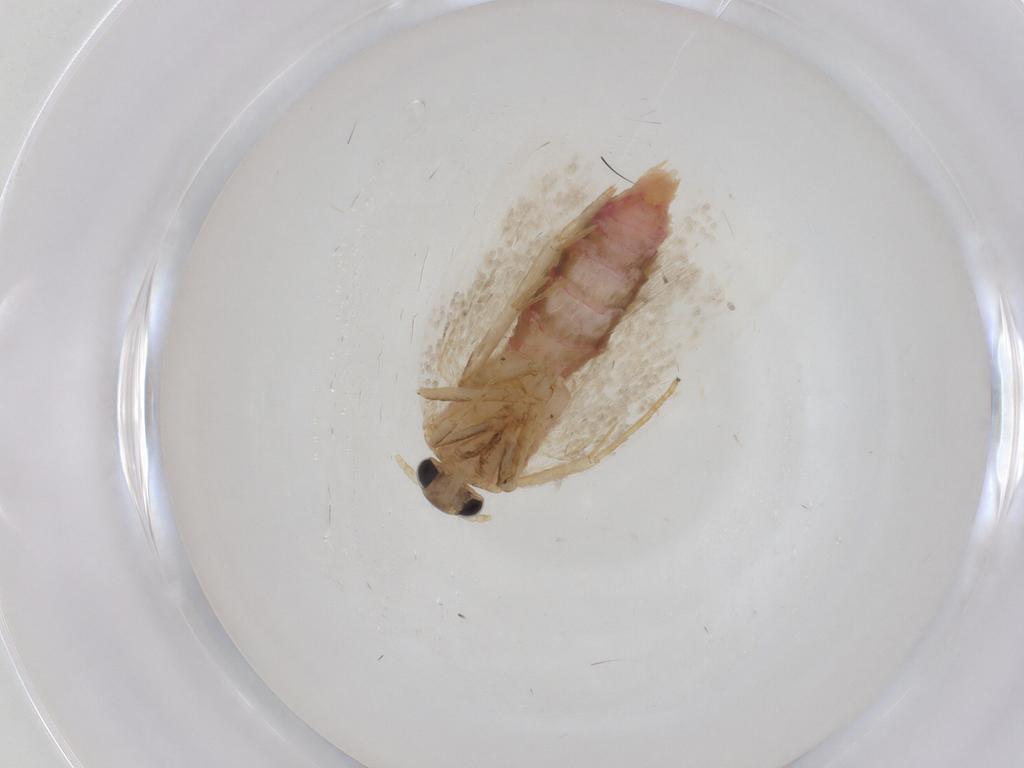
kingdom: Animalia
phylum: Arthropoda
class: Insecta
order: Lepidoptera
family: Oecophoridae
